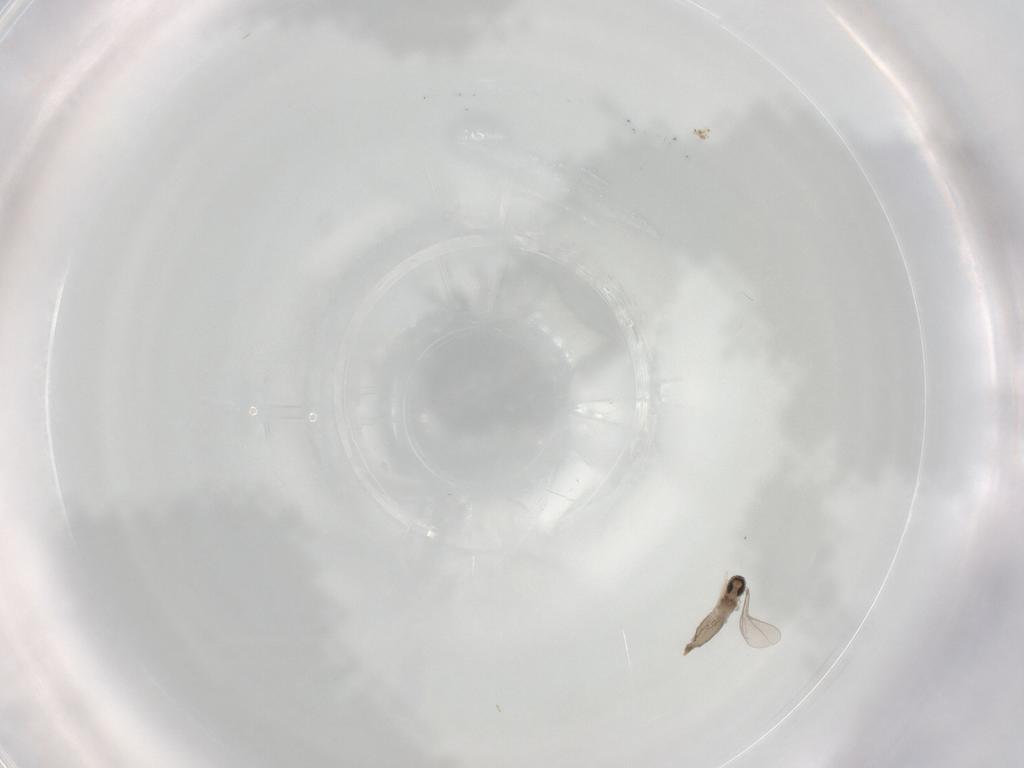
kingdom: Animalia
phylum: Arthropoda
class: Insecta
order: Diptera
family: Cecidomyiidae
